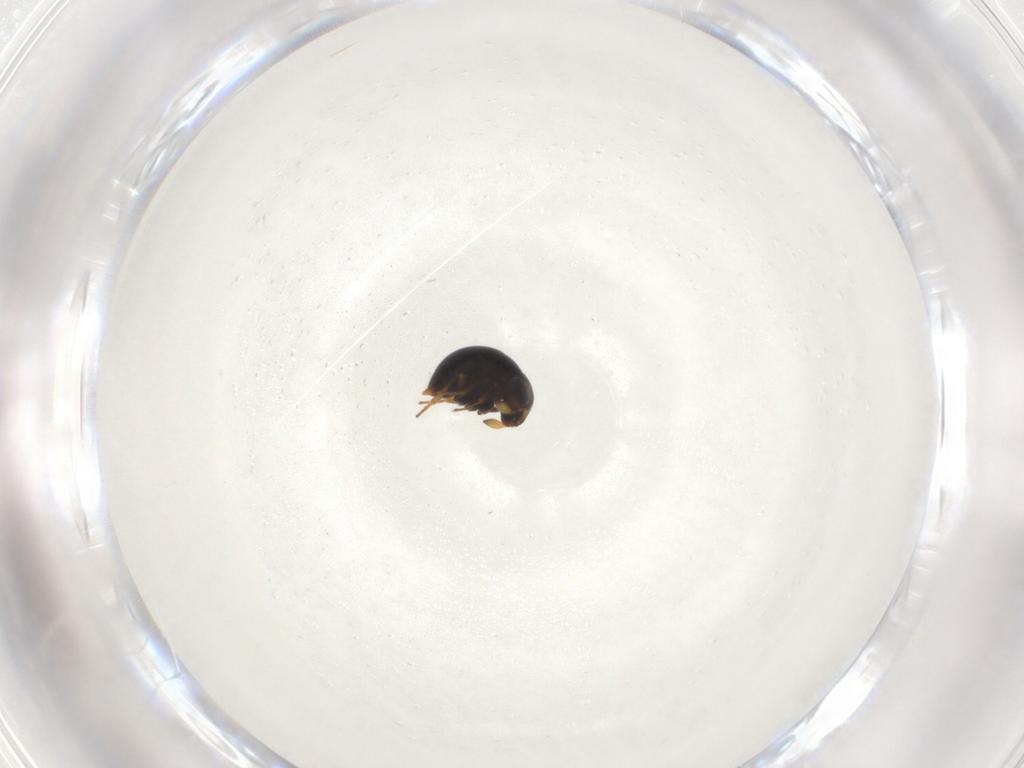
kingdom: Animalia
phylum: Arthropoda
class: Insecta
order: Hymenoptera
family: Scelionidae
